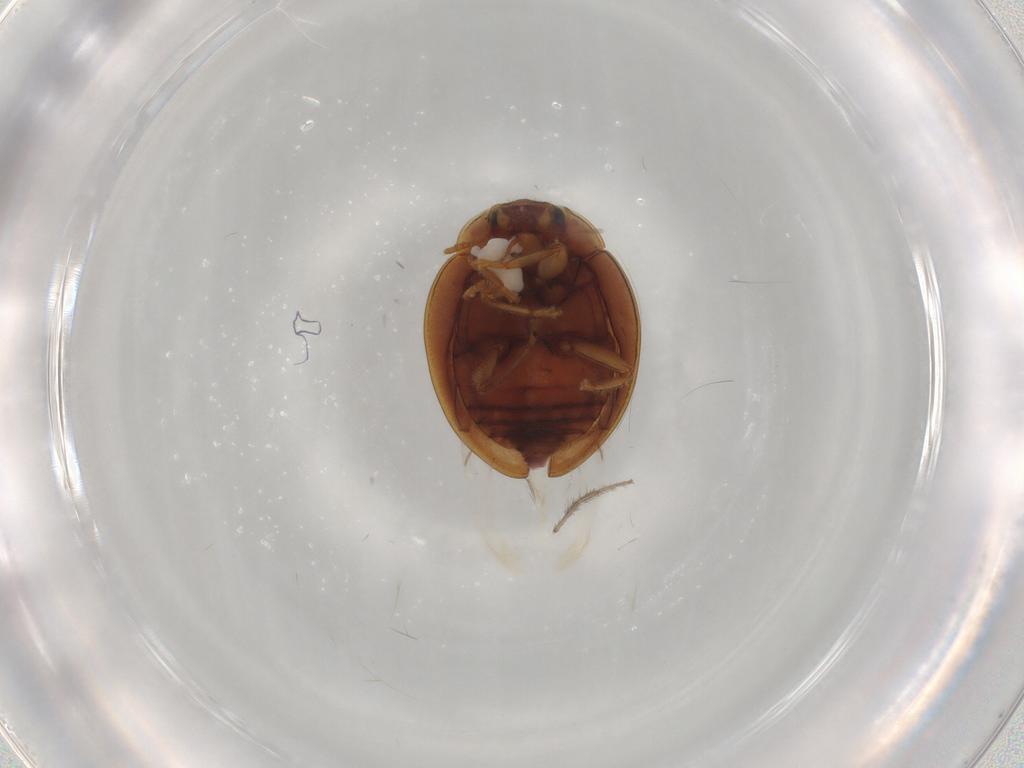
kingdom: Animalia
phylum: Arthropoda
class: Insecta
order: Coleoptera
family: Coccinellidae
